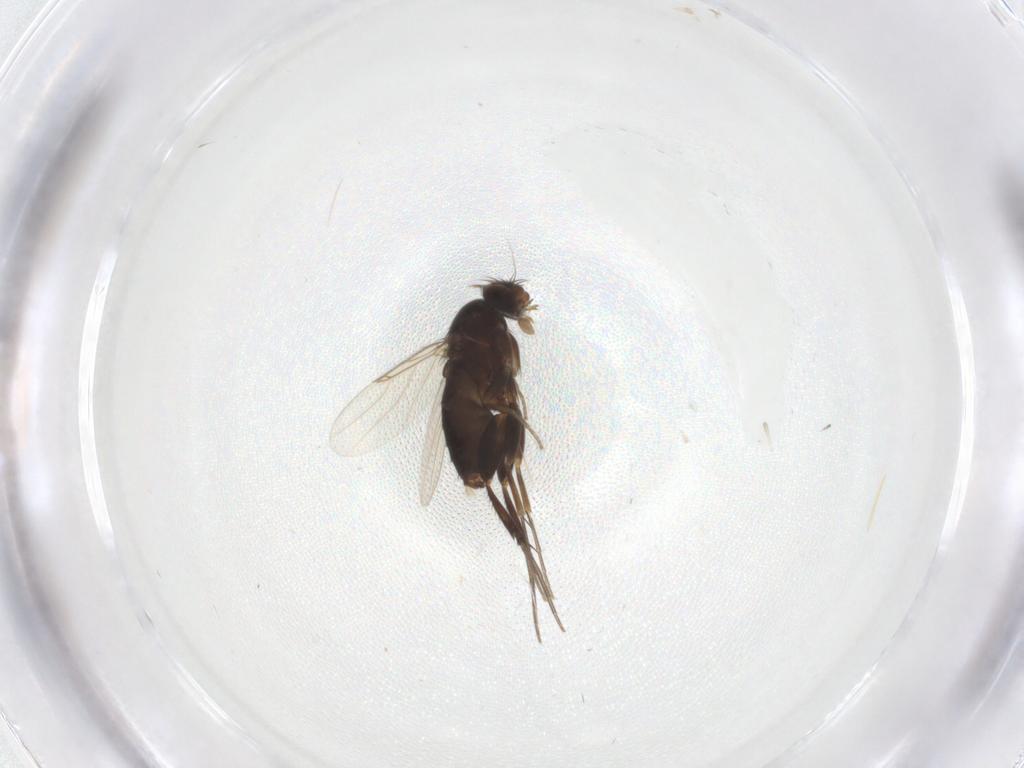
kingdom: Animalia
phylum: Arthropoda
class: Insecta
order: Diptera
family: Phoridae
